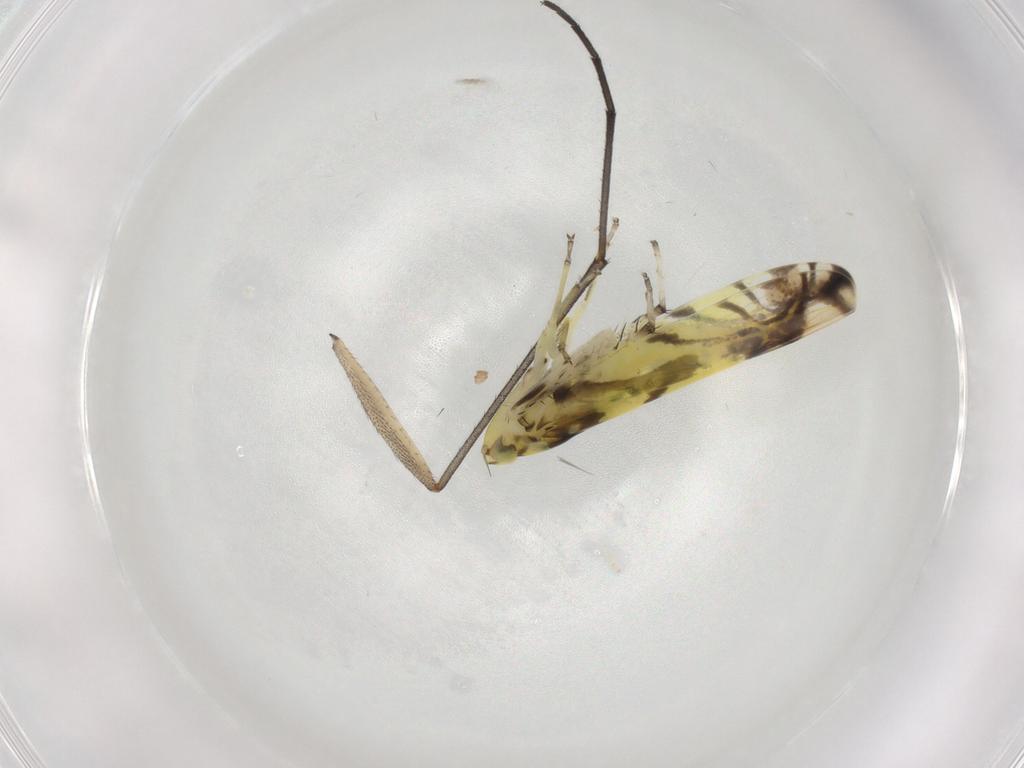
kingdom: Animalia
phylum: Arthropoda
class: Insecta
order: Hemiptera
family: Cicadellidae
